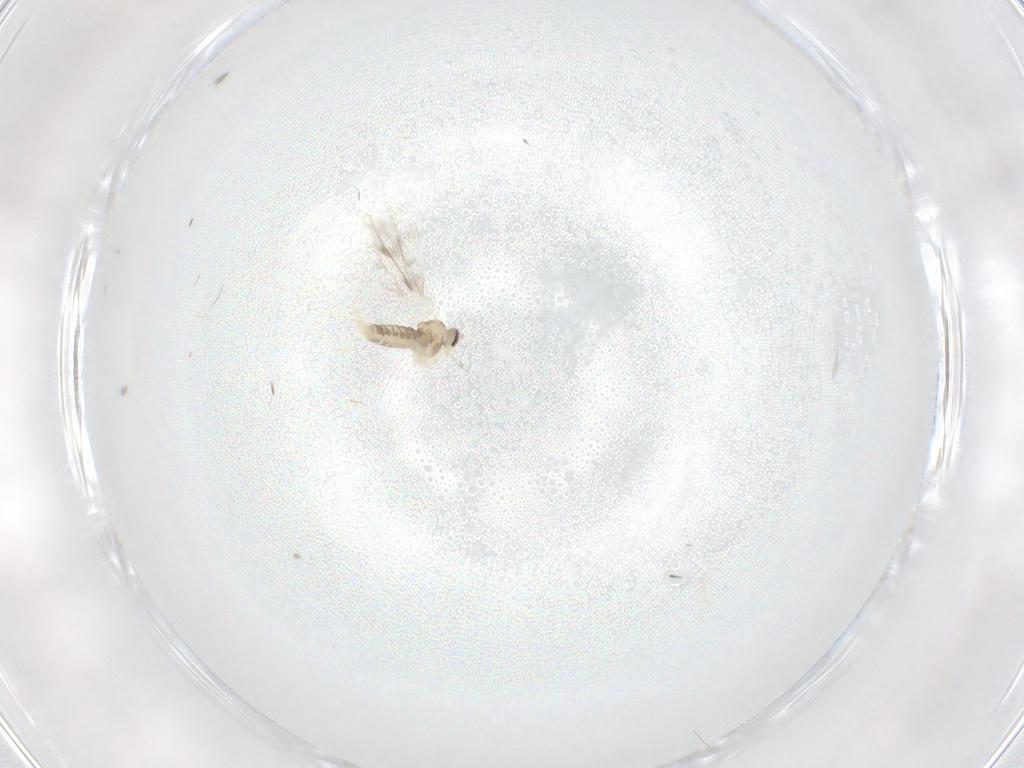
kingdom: Animalia
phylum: Arthropoda
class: Insecta
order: Diptera
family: Cecidomyiidae
